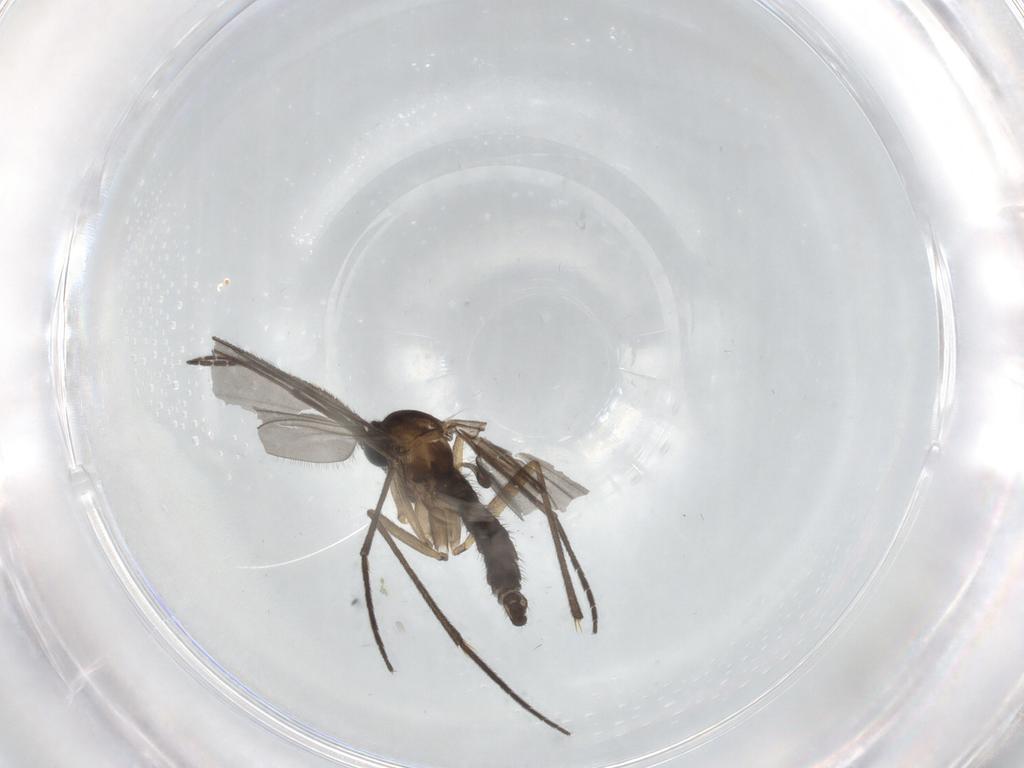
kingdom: Animalia
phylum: Arthropoda
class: Insecta
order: Diptera
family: Sciaridae
